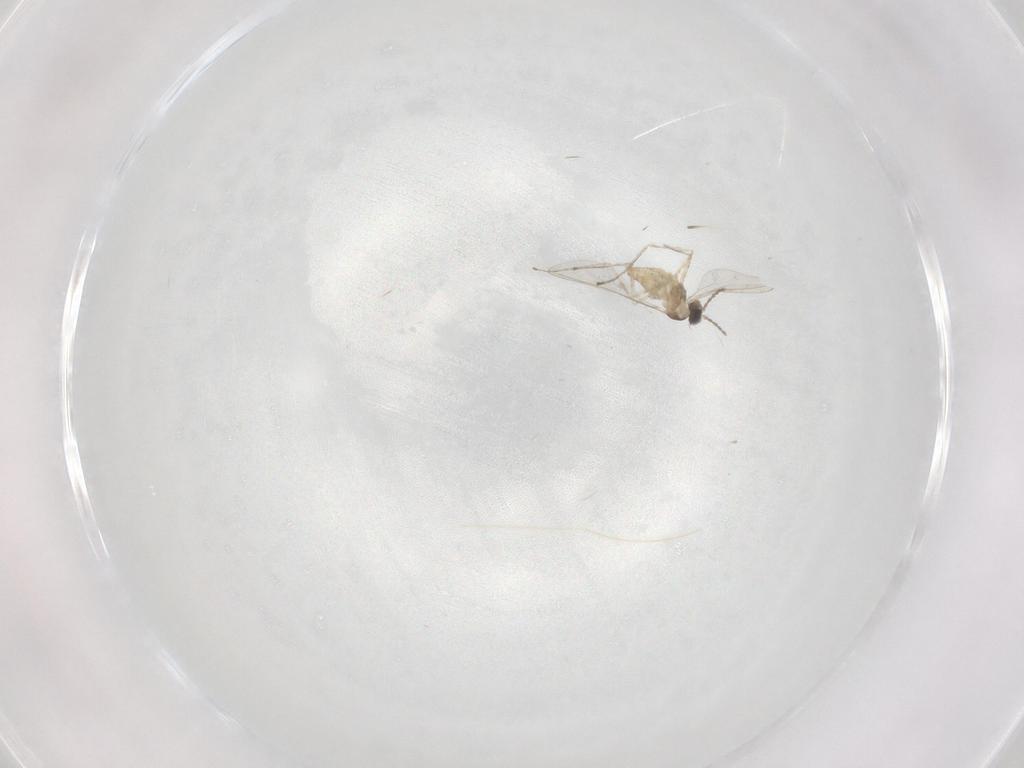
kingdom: Animalia
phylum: Arthropoda
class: Insecta
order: Diptera
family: Cecidomyiidae
